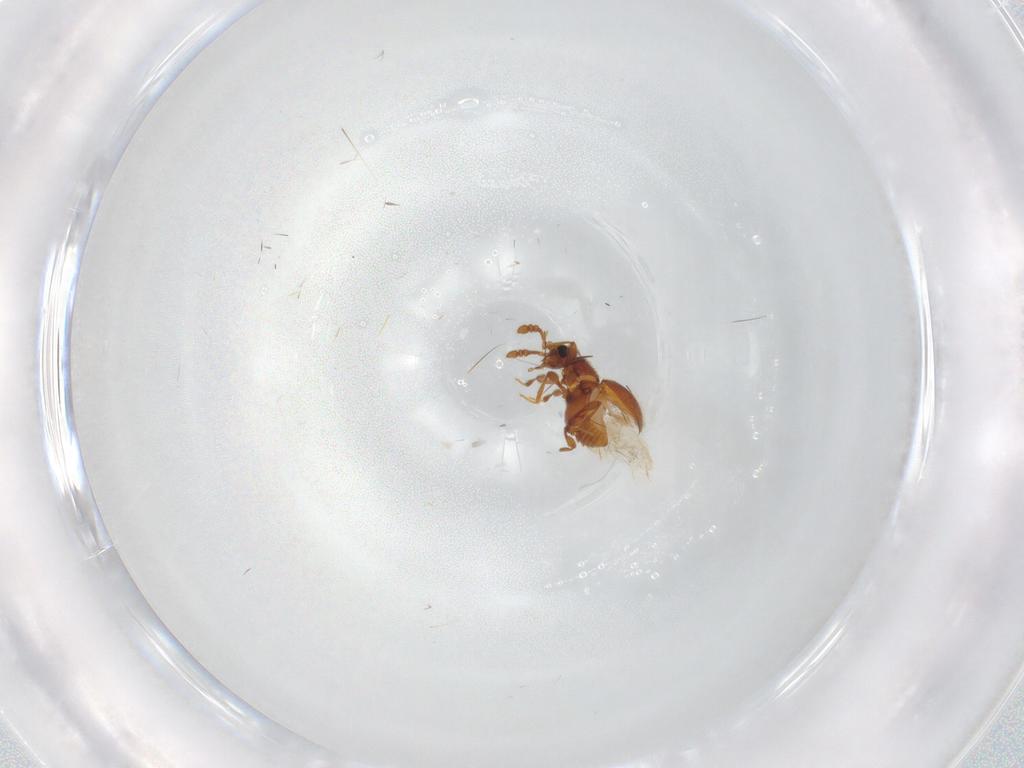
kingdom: Animalia
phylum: Arthropoda
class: Insecta
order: Coleoptera
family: Staphylinidae
